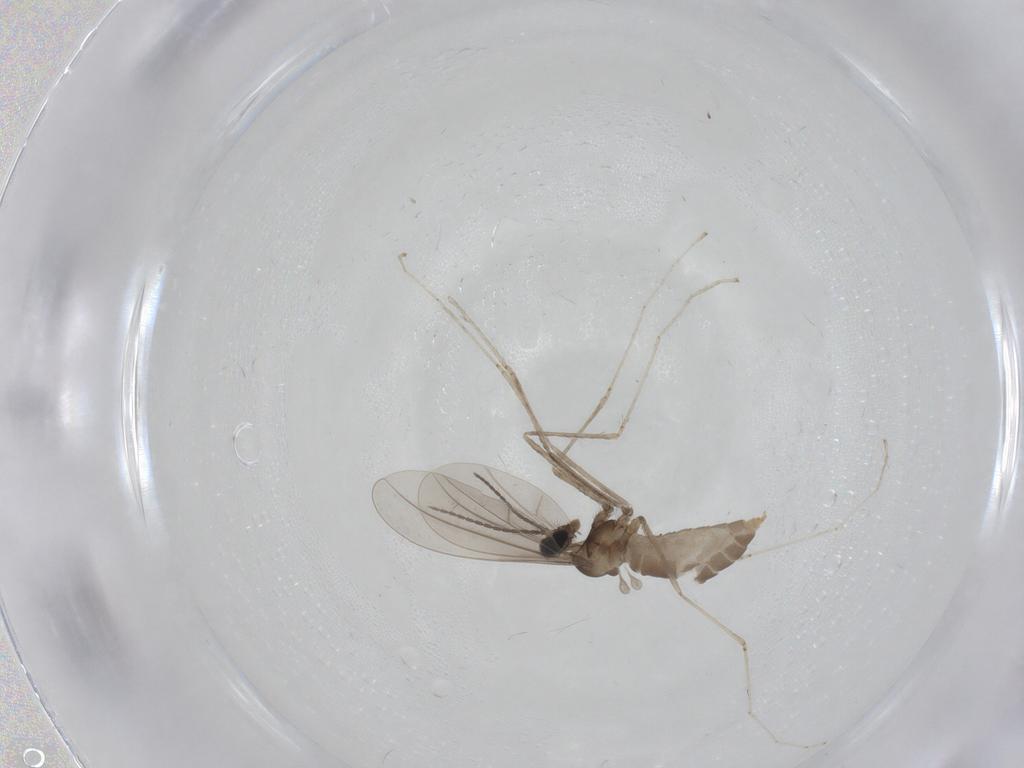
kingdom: Animalia
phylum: Arthropoda
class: Insecta
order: Diptera
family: Cecidomyiidae
